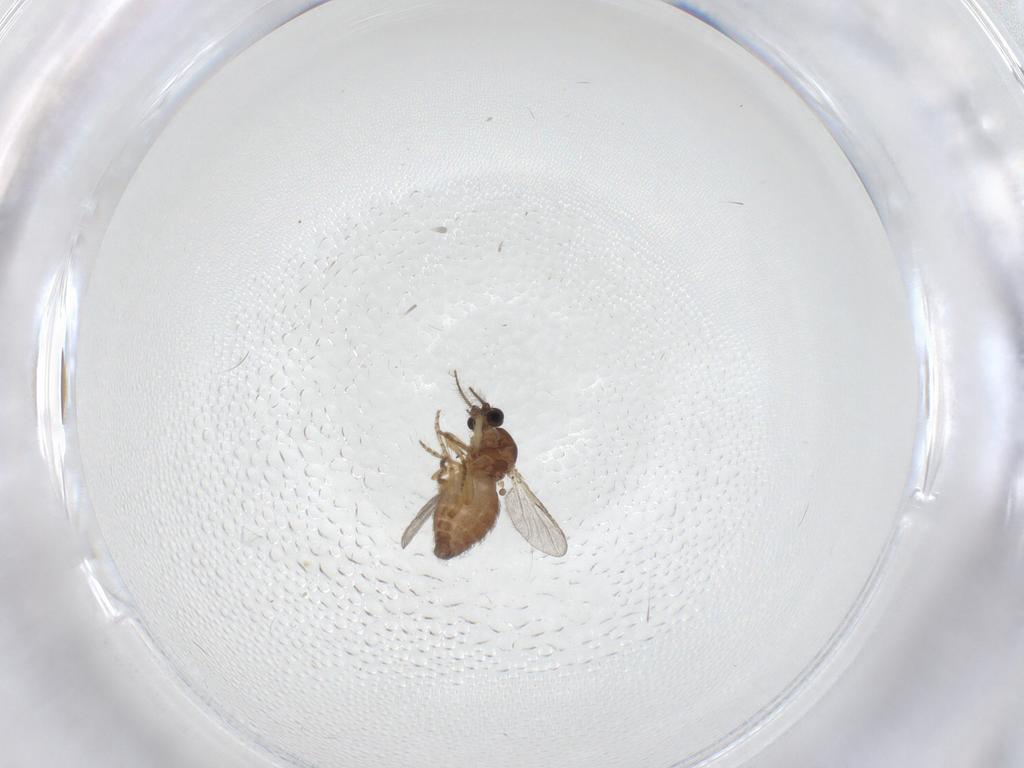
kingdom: Animalia
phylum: Arthropoda
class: Insecta
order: Diptera
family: Ceratopogonidae
